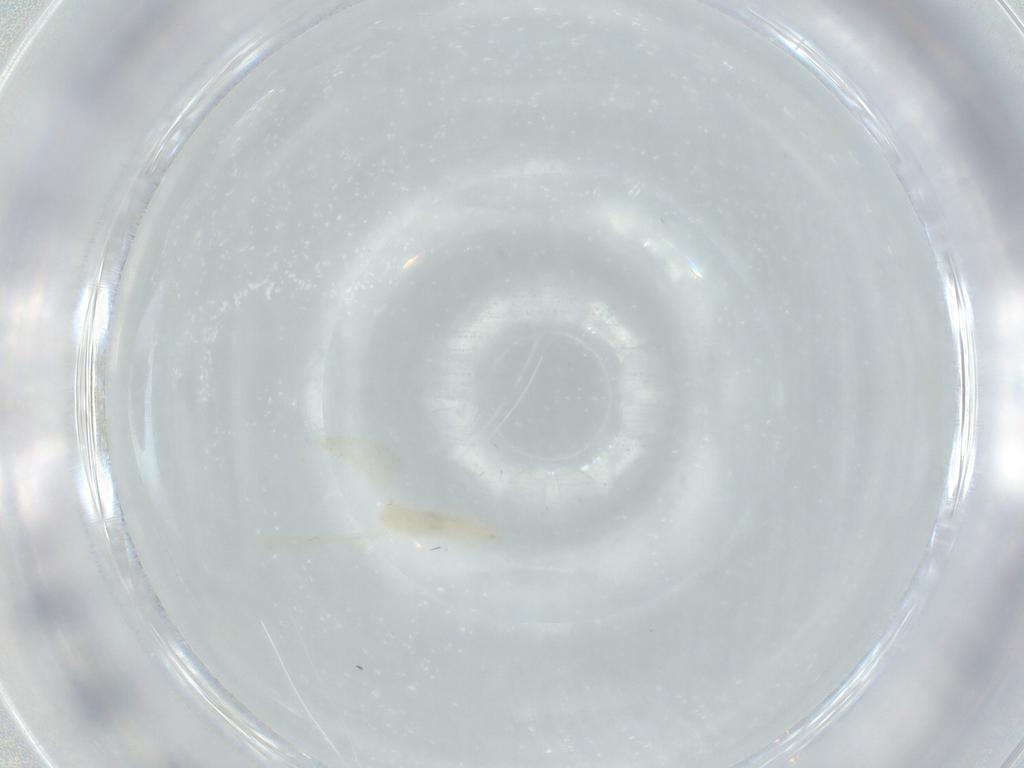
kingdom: Animalia
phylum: Arthropoda
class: Insecta
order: Diptera
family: Cecidomyiidae
